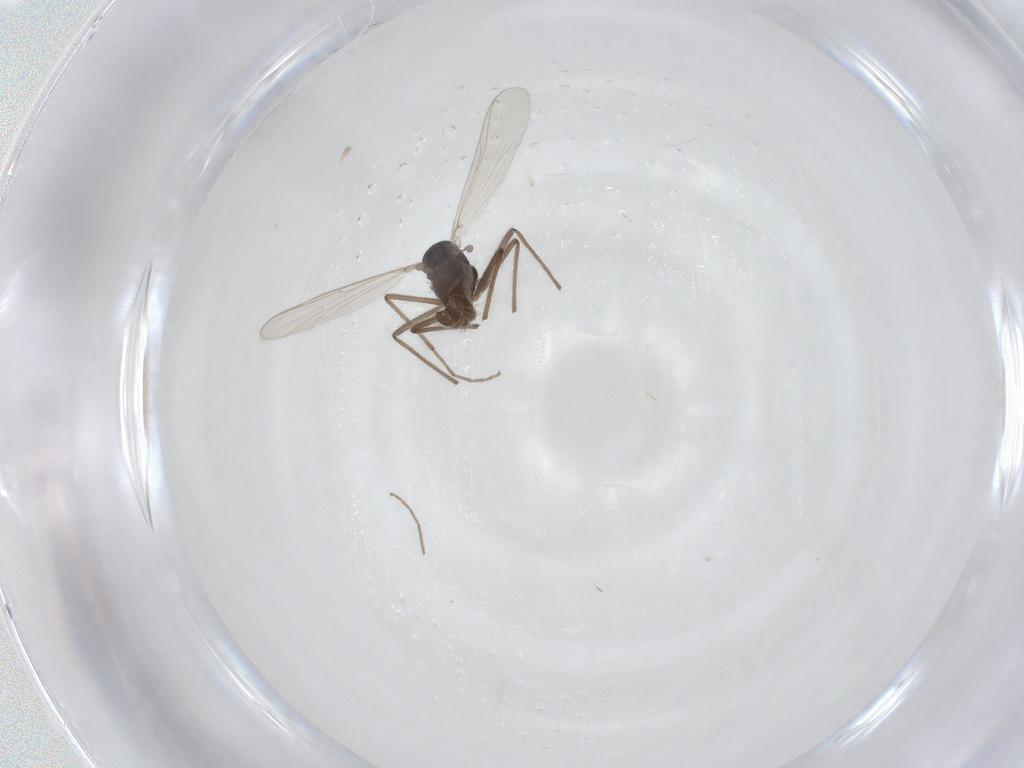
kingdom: Animalia
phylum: Arthropoda
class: Insecta
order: Diptera
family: Chironomidae
